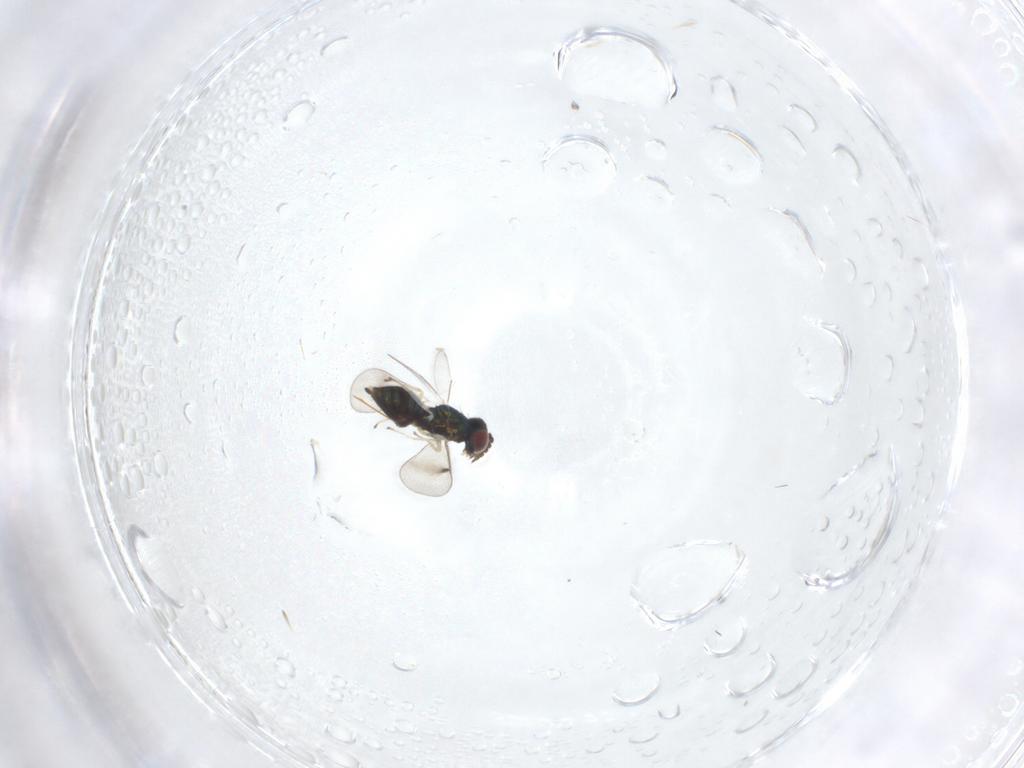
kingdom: Animalia
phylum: Arthropoda
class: Insecta
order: Hymenoptera
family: Eulophidae
